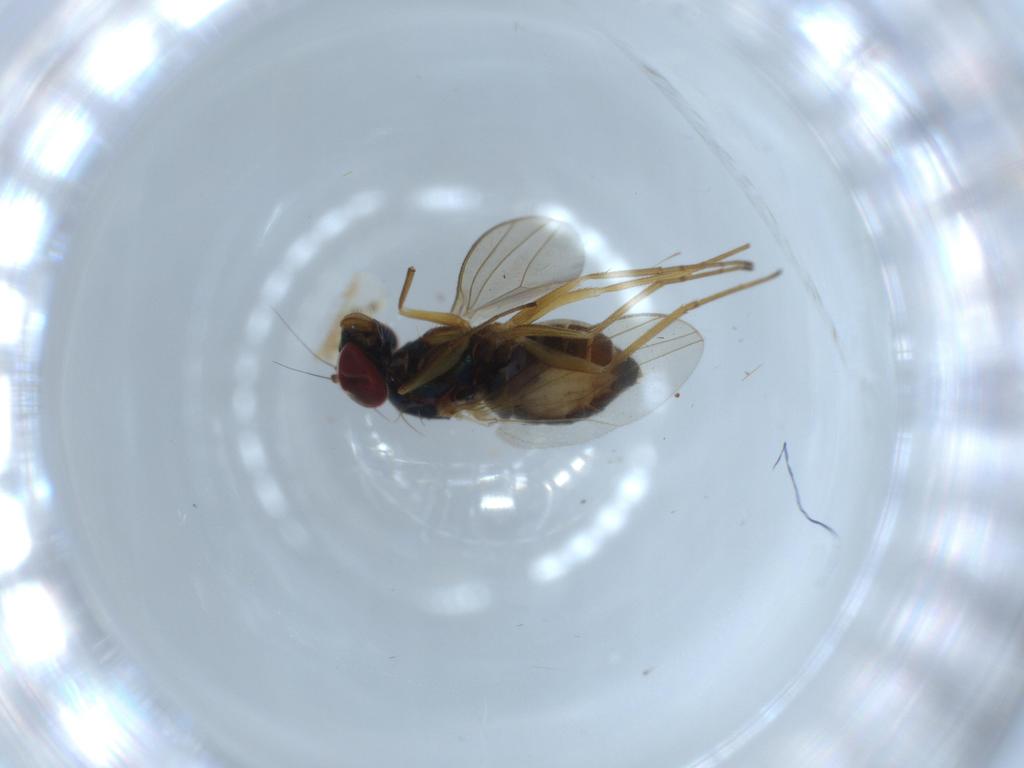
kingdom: Animalia
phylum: Arthropoda
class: Insecta
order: Diptera
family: Dolichopodidae
